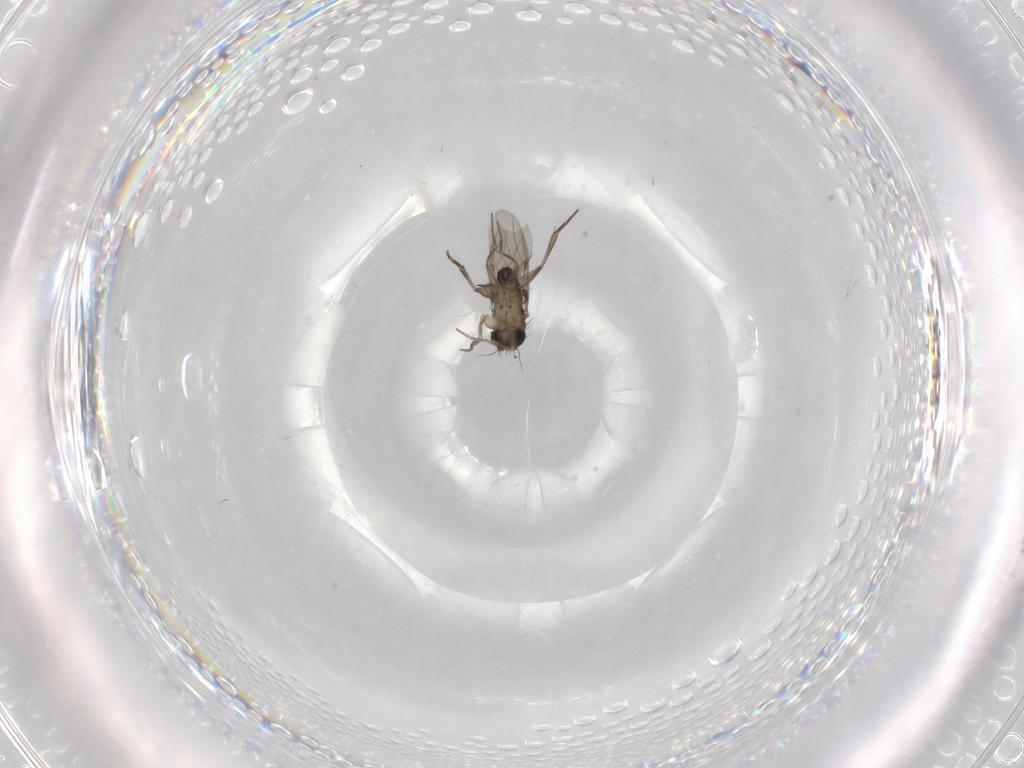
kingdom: Animalia
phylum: Arthropoda
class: Insecta
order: Diptera
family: Phoridae
